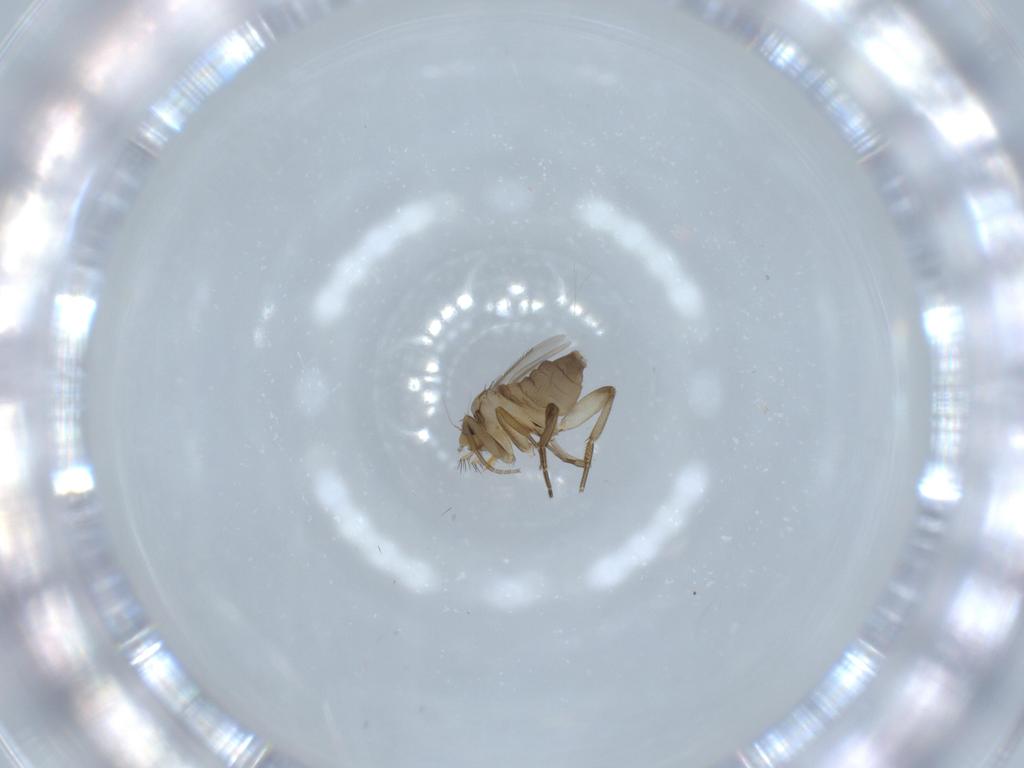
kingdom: Animalia
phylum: Arthropoda
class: Insecta
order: Diptera
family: Phoridae
